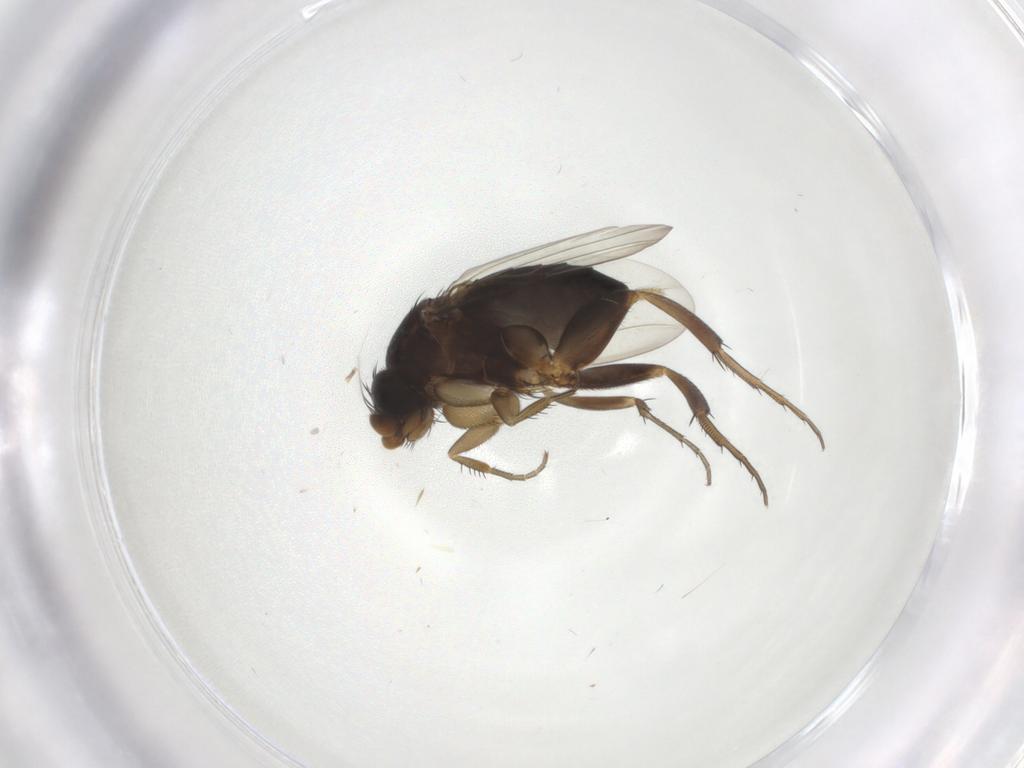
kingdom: Animalia
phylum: Arthropoda
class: Insecta
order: Diptera
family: Phoridae
